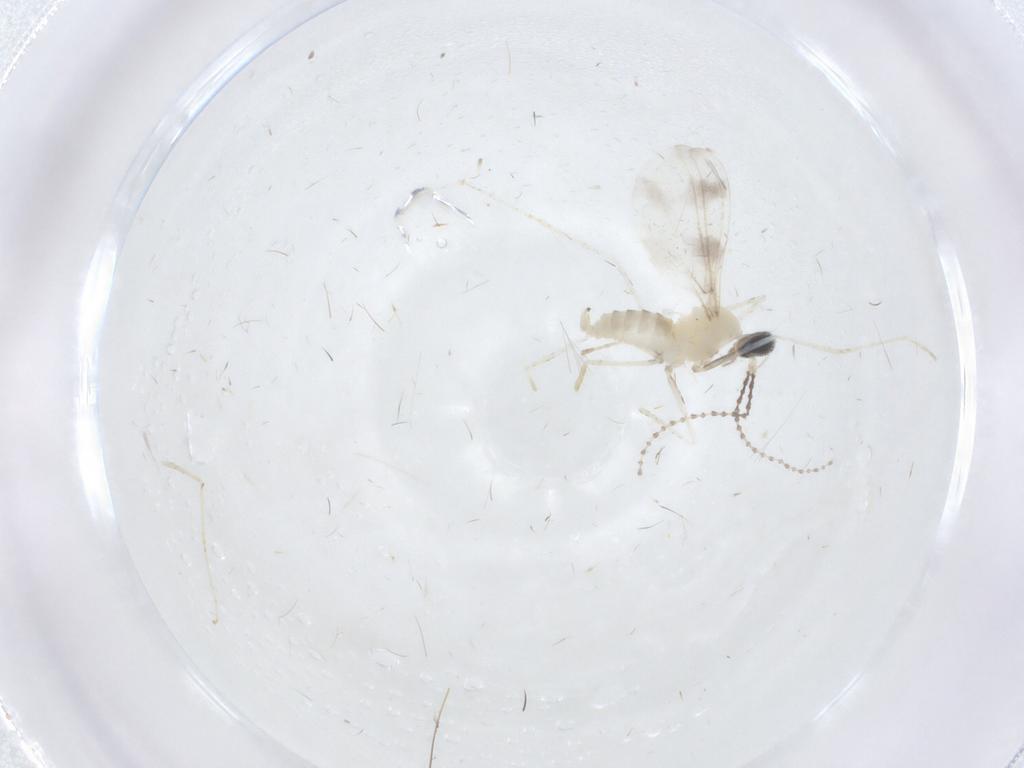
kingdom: Animalia
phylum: Arthropoda
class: Insecta
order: Diptera
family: Cecidomyiidae
